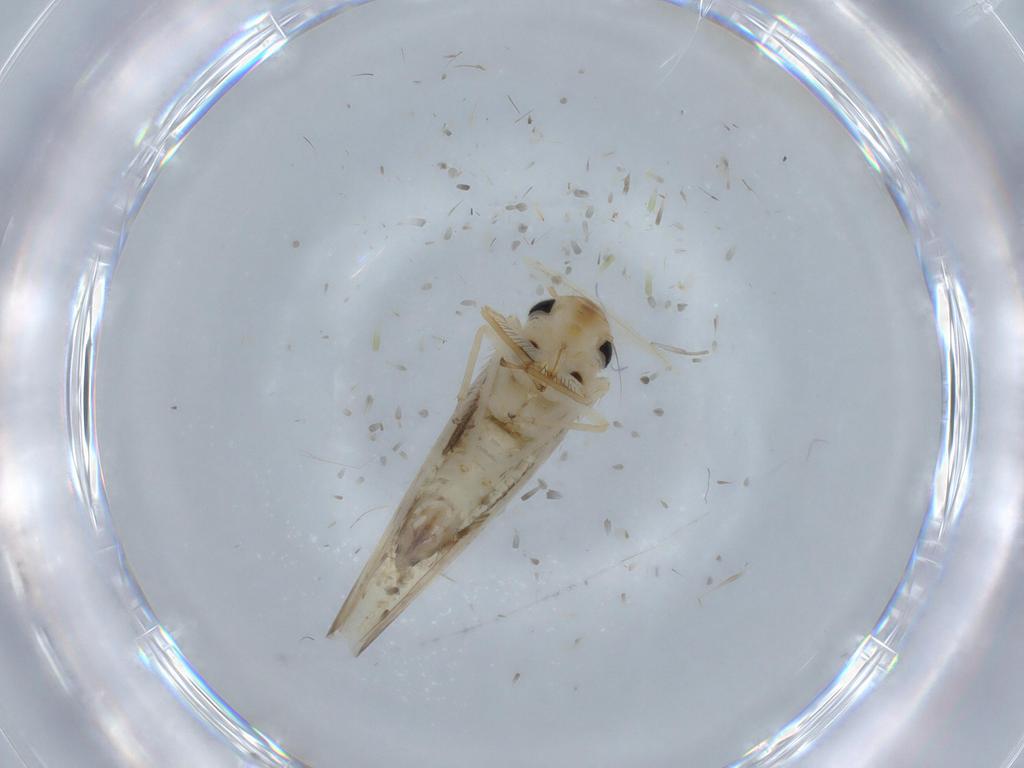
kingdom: Animalia
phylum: Arthropoda
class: Insecta
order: Hemiptera
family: Cicadellidae
